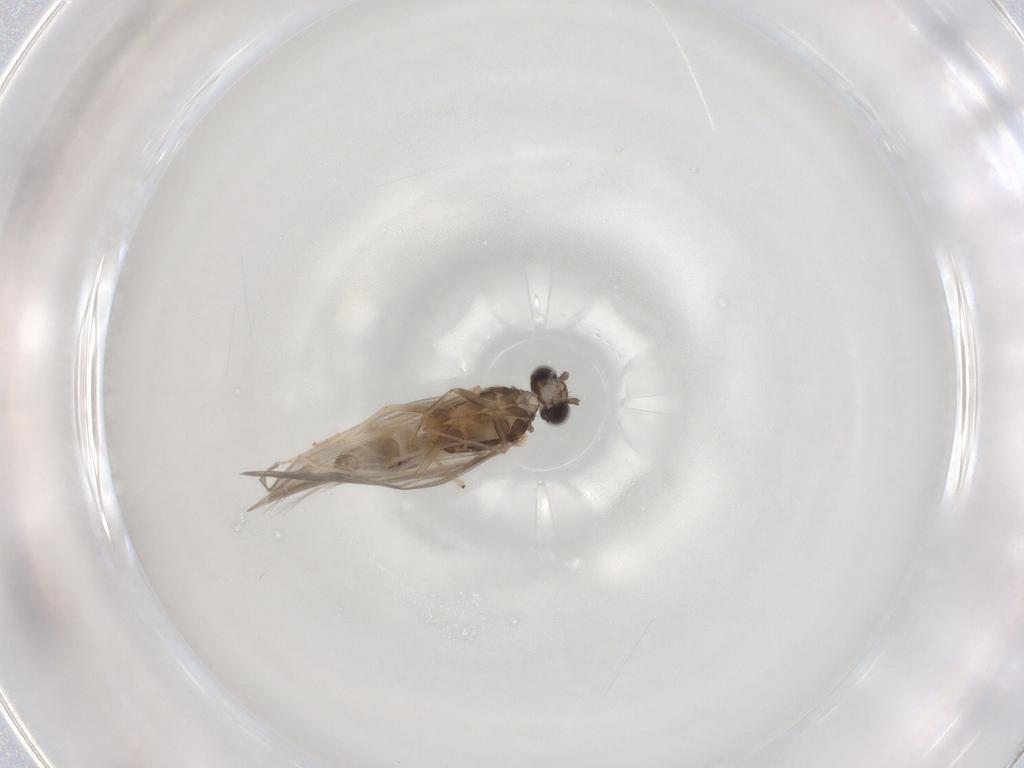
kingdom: Animalia
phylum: Arthropoda
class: Insecta
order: Trichoptera
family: Hydroptilidae
